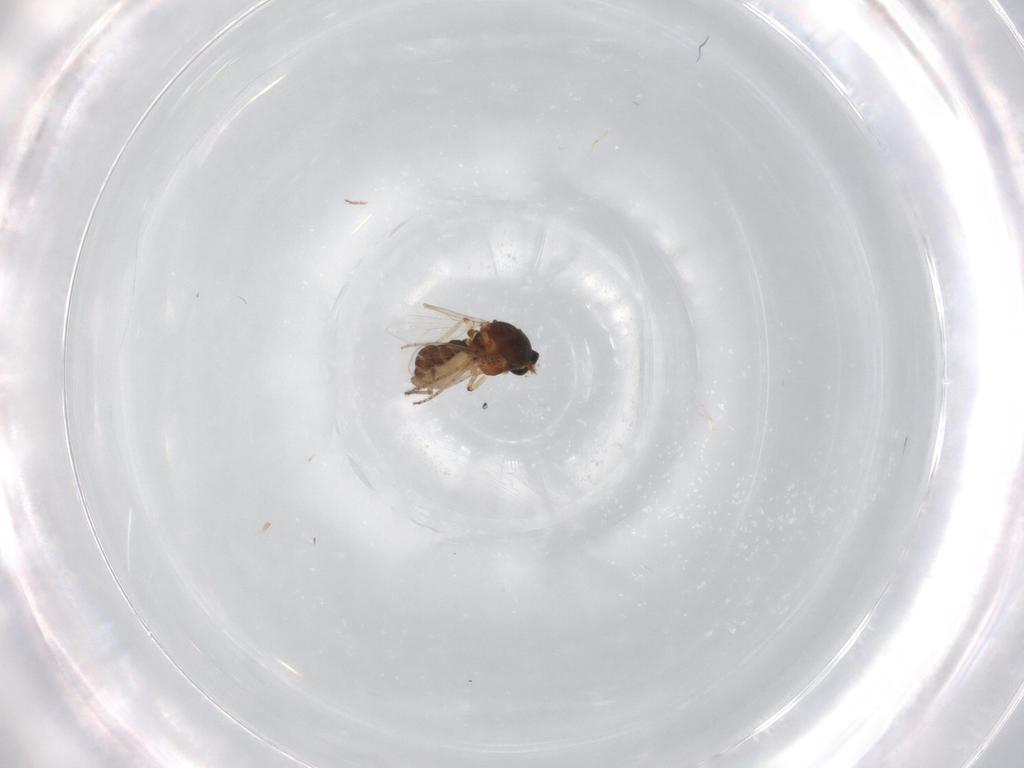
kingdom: Animalia
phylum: Arthropoda
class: Insecta
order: Diptera
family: Ceratopogonidae
